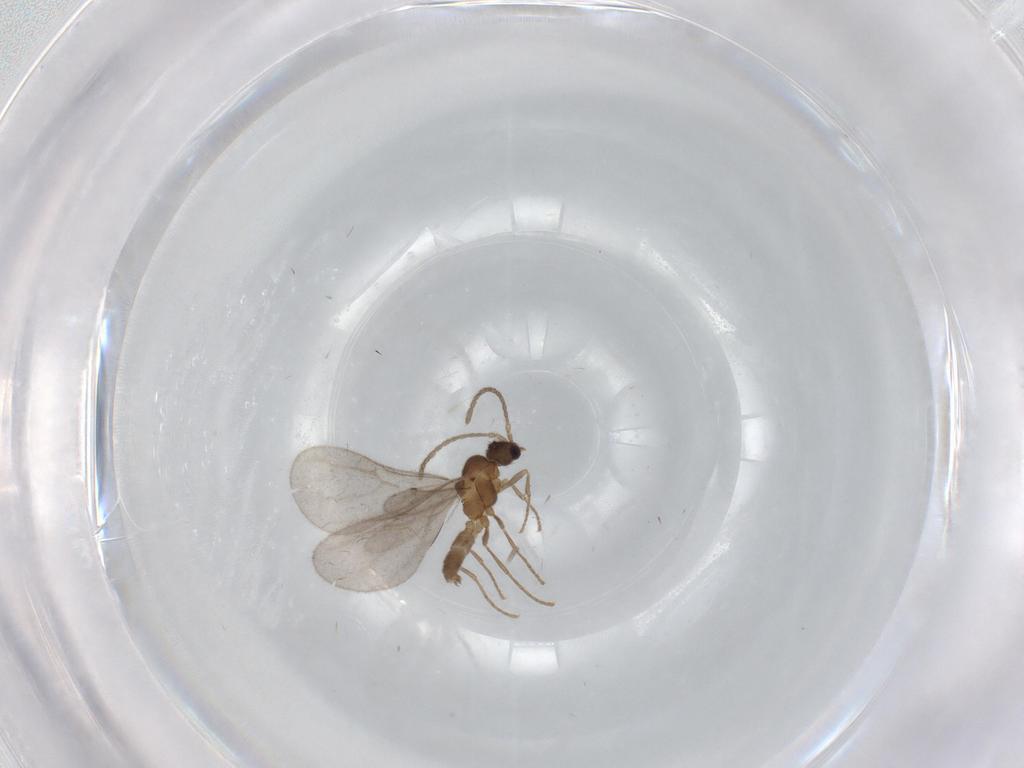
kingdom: Animalia
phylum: Arthropoda
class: Insecta
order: Hymenoptera
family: Formicidae
